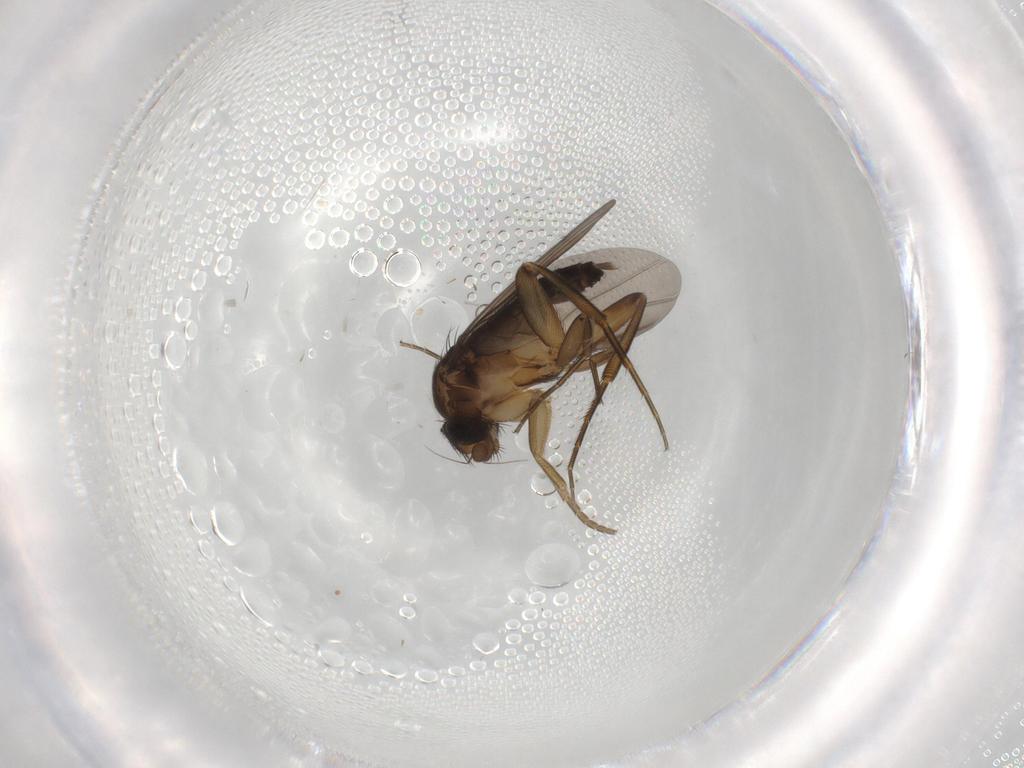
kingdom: Animalia
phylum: Arthropoda
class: Insecta
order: Diptera
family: Phoridae
